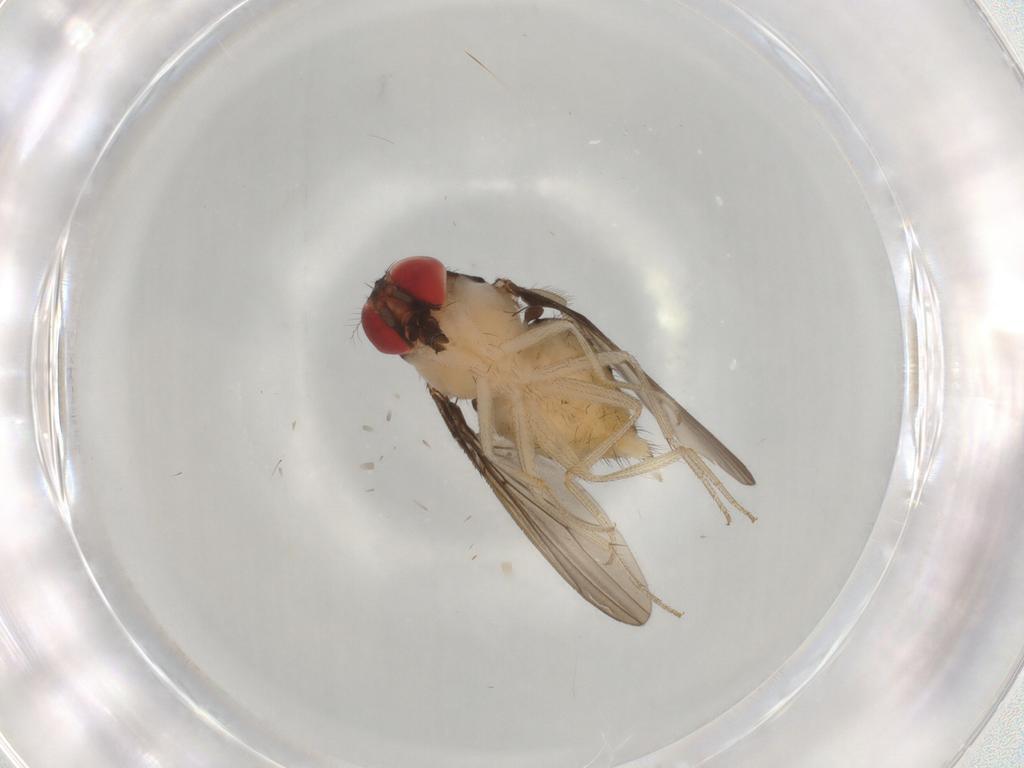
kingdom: Animalia
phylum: Arthropoda
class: Insecta
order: Diptera
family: Drosophilidae
